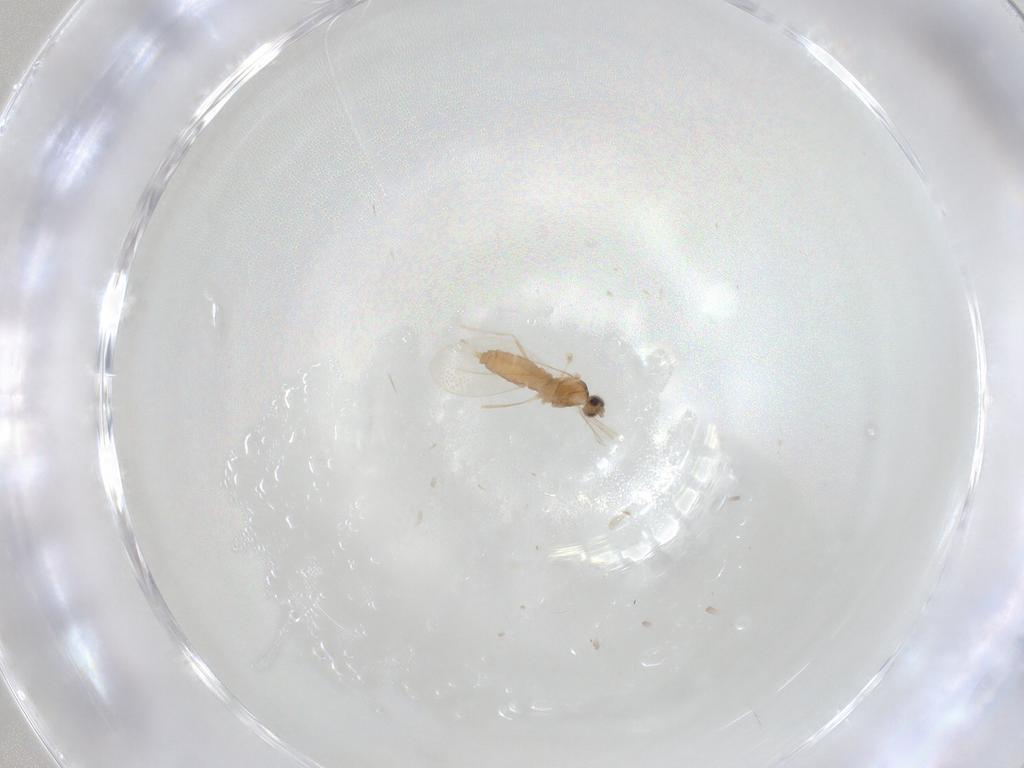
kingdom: Animalia
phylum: Arthropoda
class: Insecta
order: Diptera
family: Cecidomyiidae
